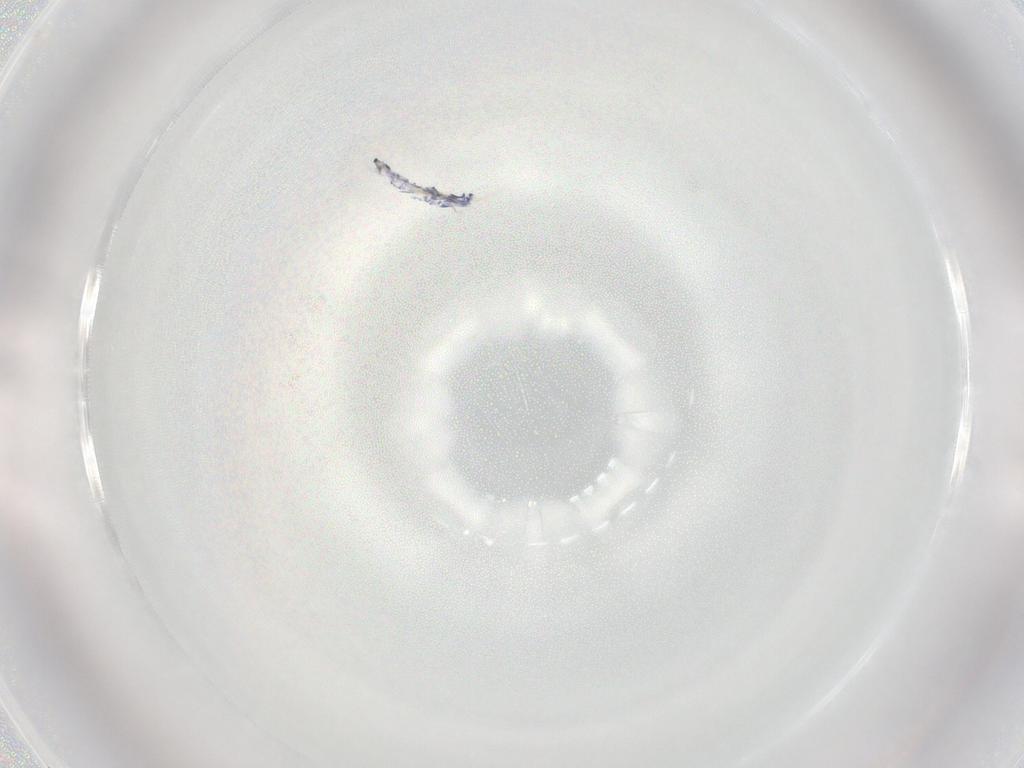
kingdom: Animalia
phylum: Arthropoda
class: Collembola
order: Entomobryomorpha
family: Entomobryidae
